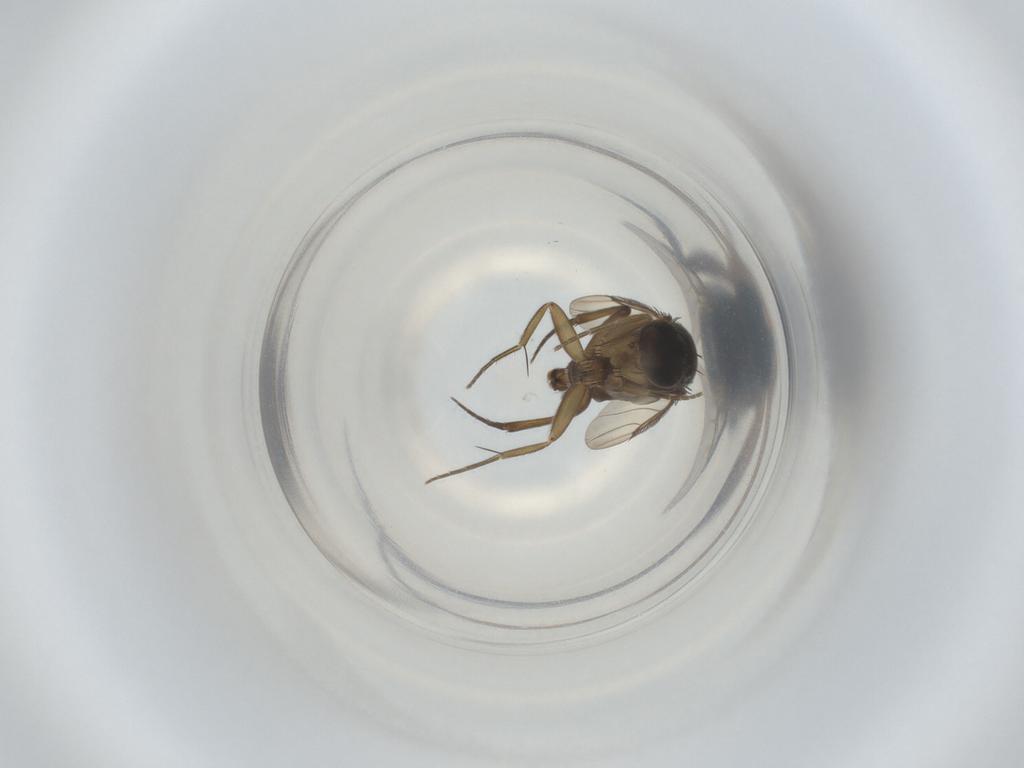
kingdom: Animalia
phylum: Arthropoda
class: Insecta
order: Diptera
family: Phoridae
